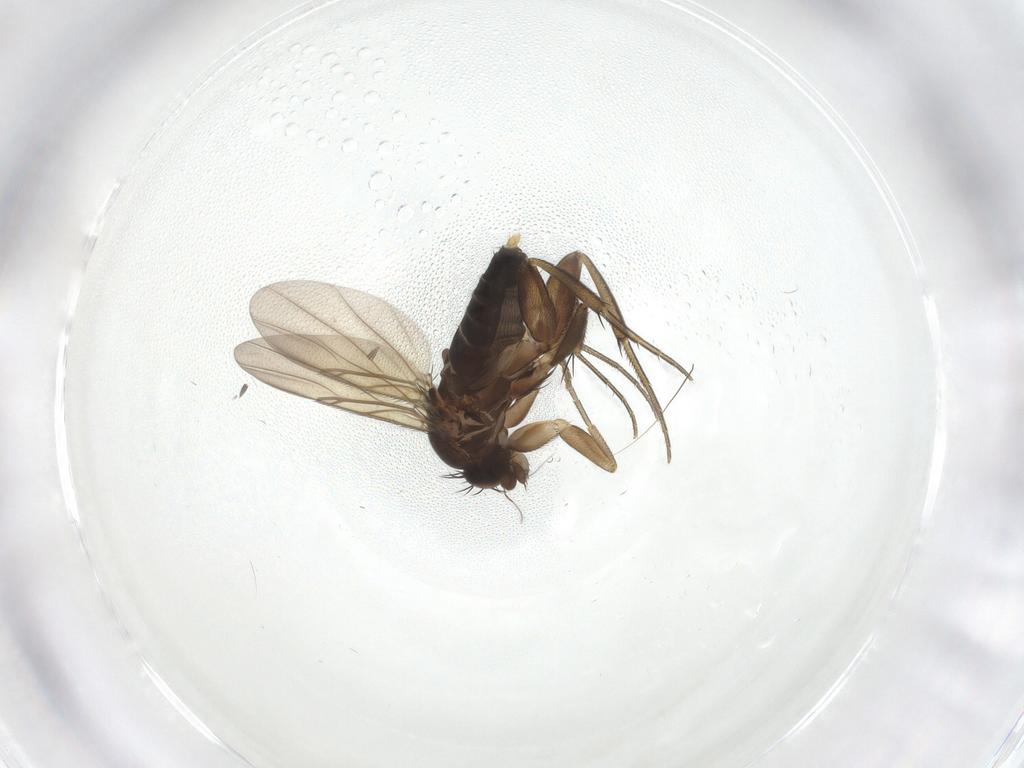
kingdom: Animalia
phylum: Arthropoda
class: Insecta
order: Diptera
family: Phoridae
